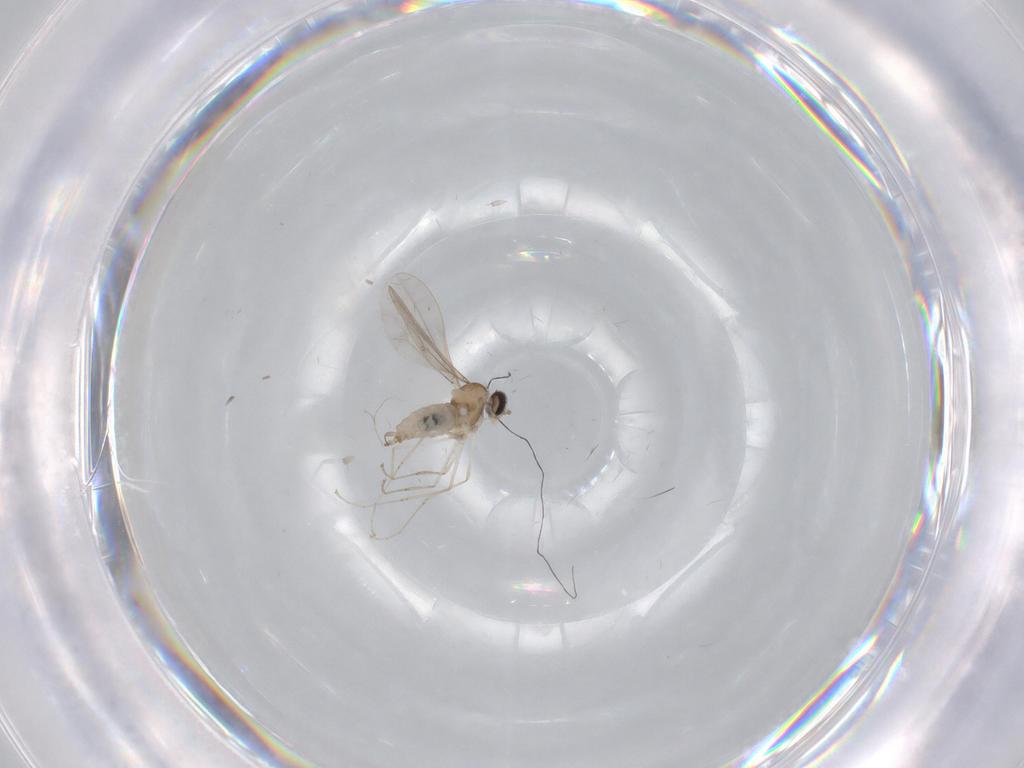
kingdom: Animalia
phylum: Arthropoda
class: Insecta
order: Diptera
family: Cecidomyiidae
